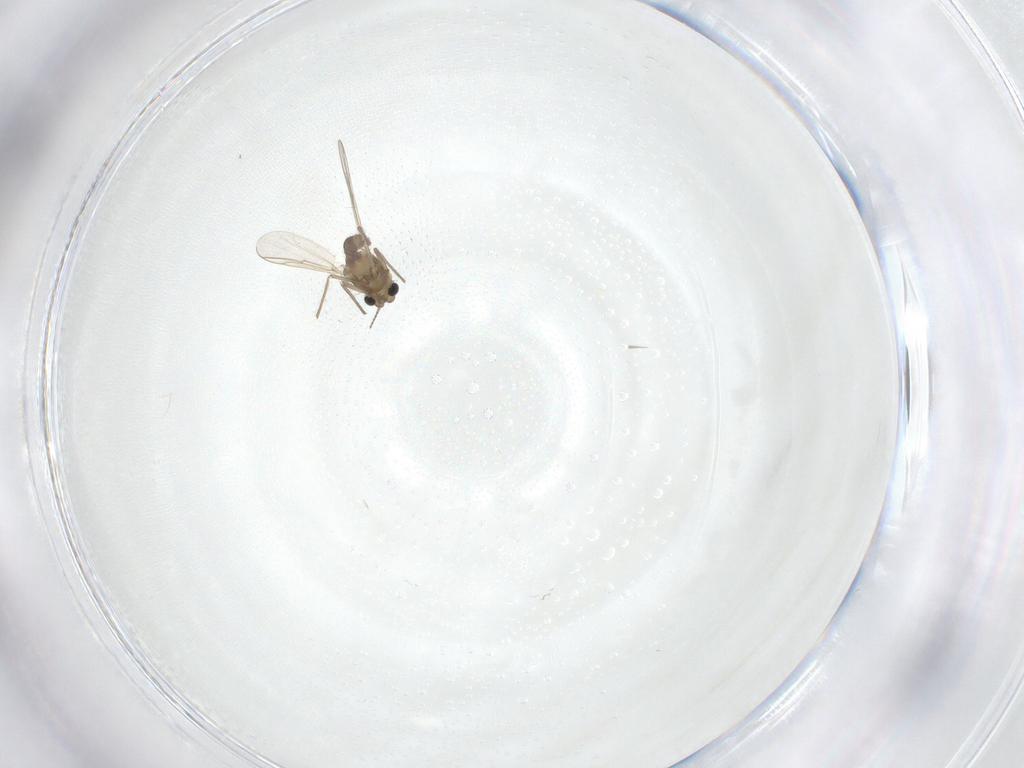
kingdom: Animalia
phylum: Arthropoda
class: Insecta
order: Diptera
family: Chironomidae
